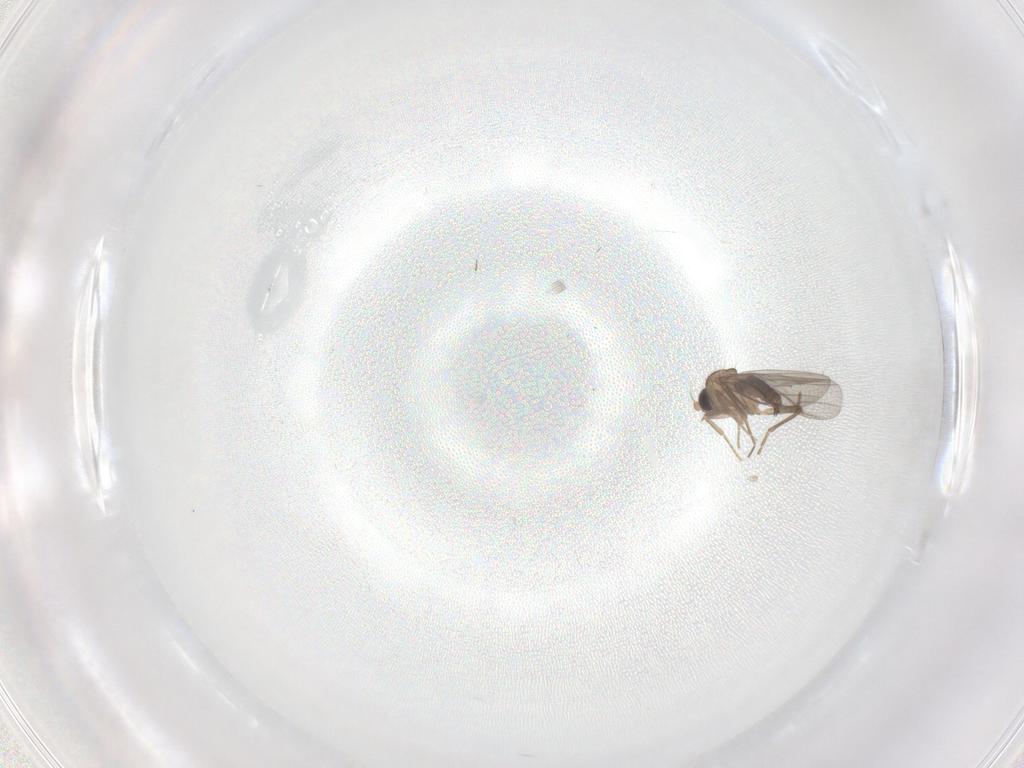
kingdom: Animalia
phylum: Arthropoda
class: Insecta
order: Diptera
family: Phoridae
